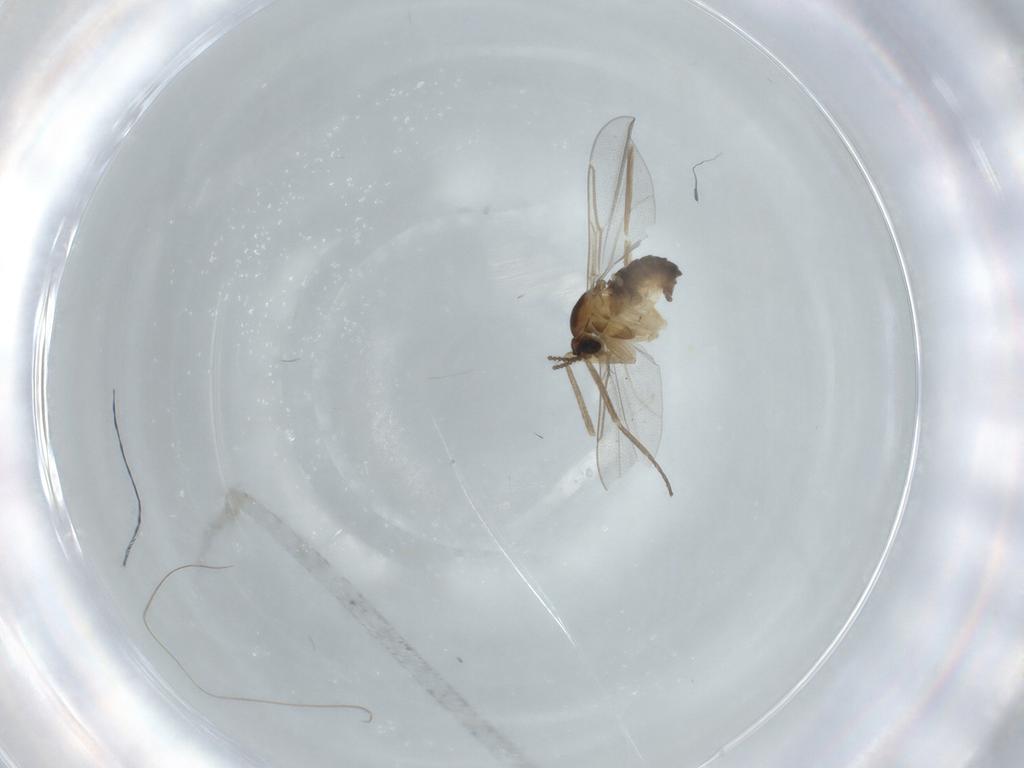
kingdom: Animalia
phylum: Arthropoda
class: Insecta
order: Diptera
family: Cecidomyiidae
